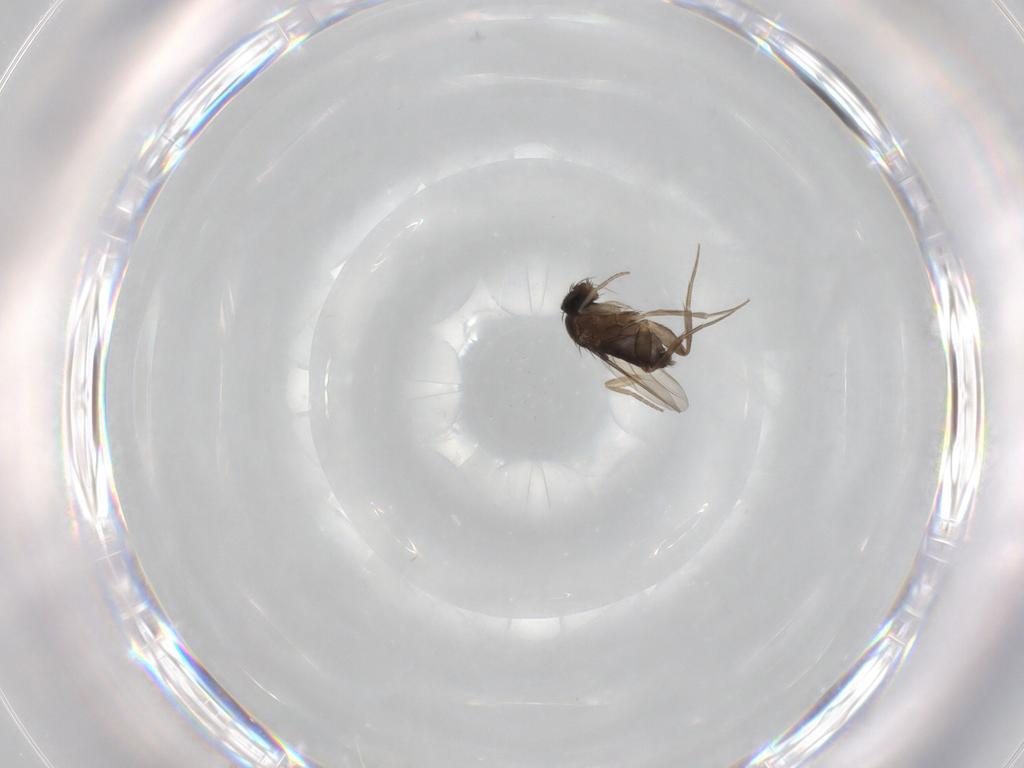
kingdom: Animalia
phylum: Arthropoda
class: Insecta
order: Diptera
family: Phoridae
